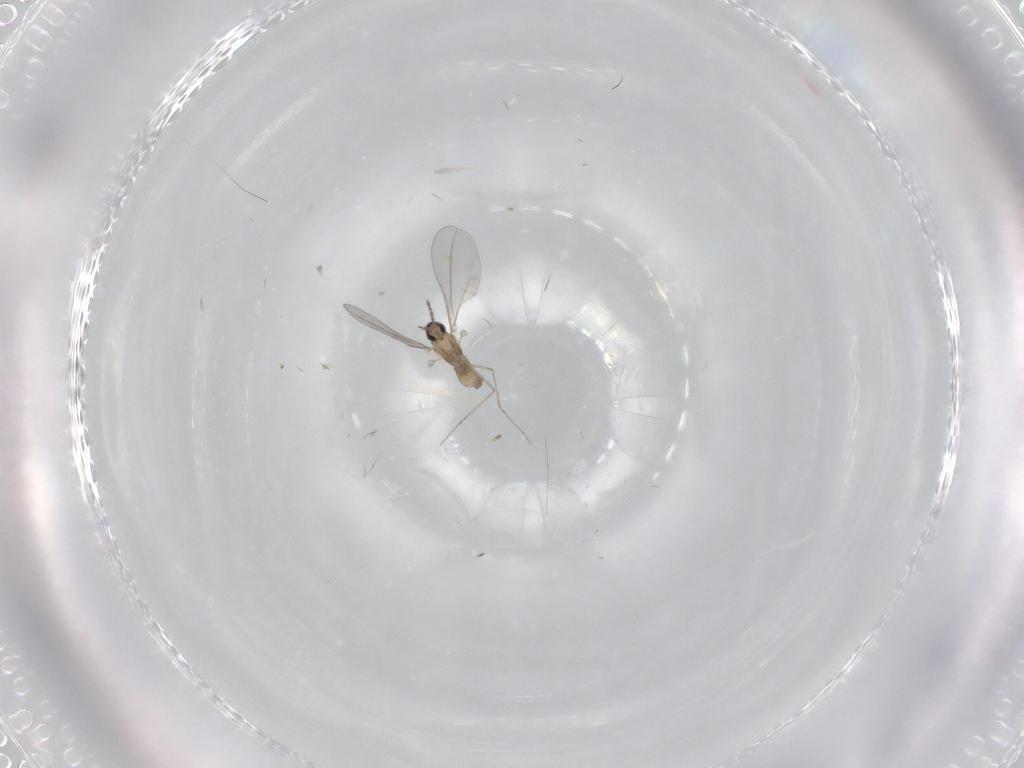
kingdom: Animalia
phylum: Arthropoda
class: Insecta
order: Diptera
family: Cecidomyiidae
